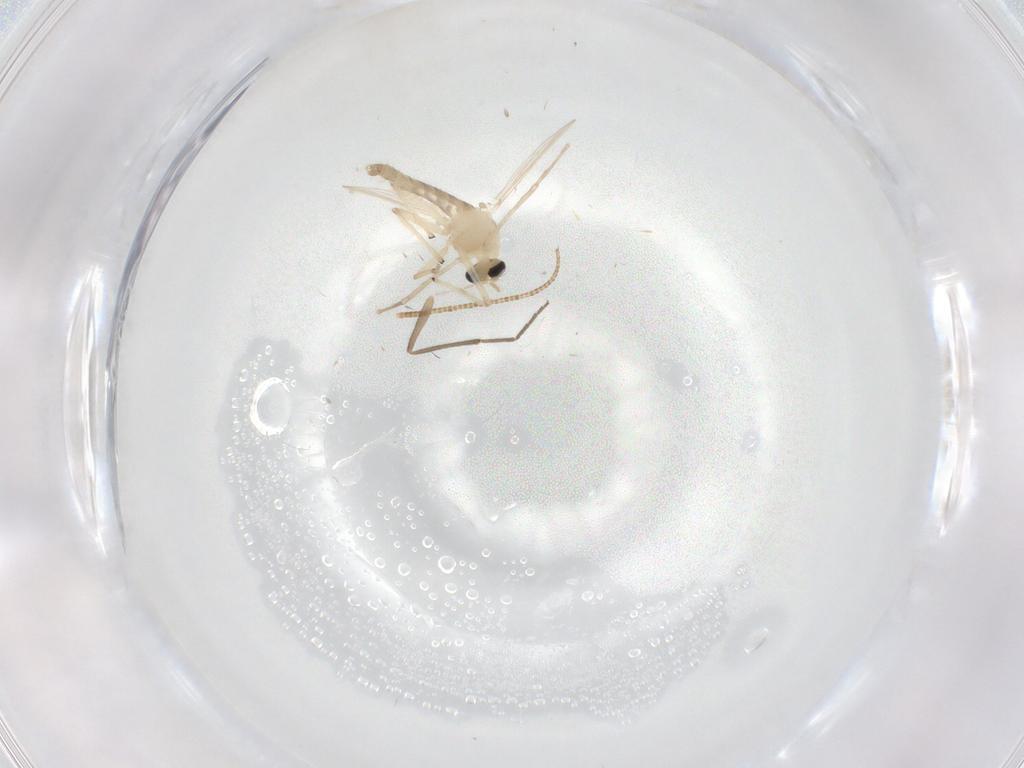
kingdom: Animalia
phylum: Arthropoda
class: Insecta
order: Diptera
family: Chironomidae
